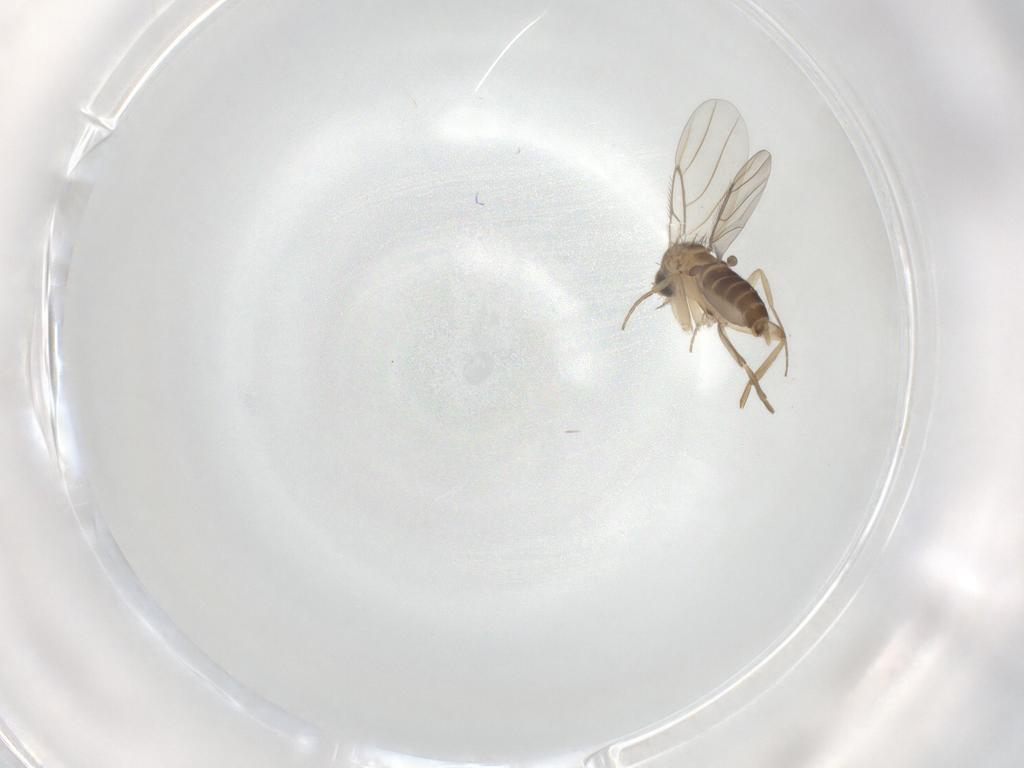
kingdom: Animalia
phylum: Arthropoda
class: Insecta
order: Diptera
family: Phoridae
